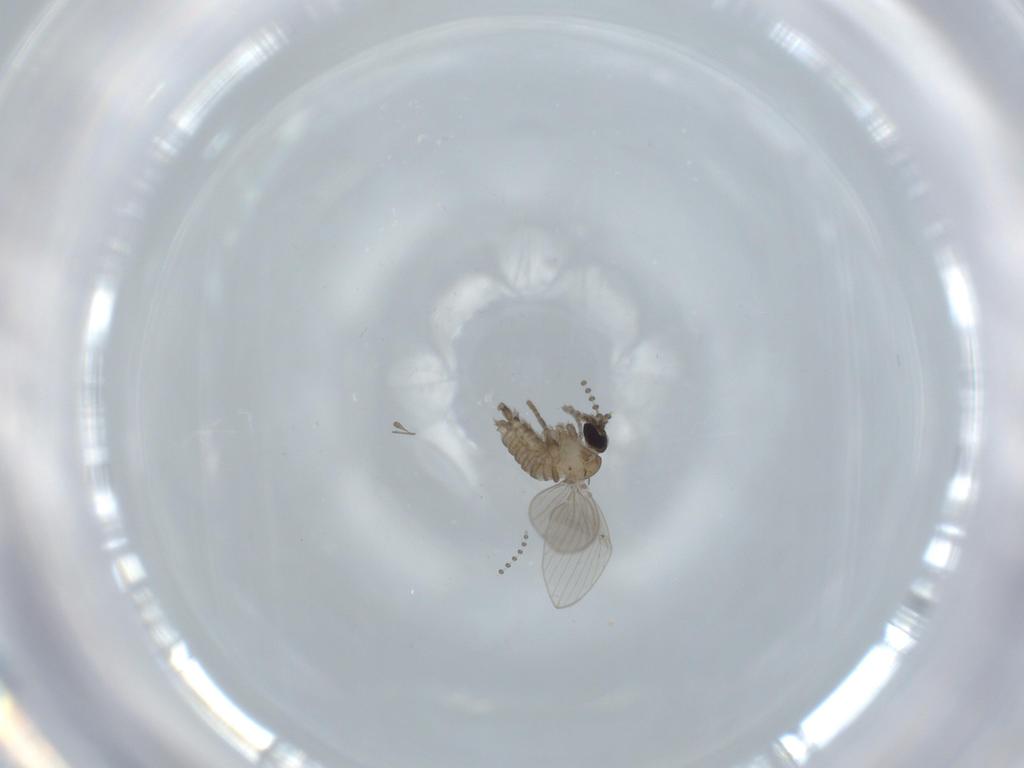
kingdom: Animalia
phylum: Arthropoda
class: Insecta
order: Diptera
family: Psychodidae
